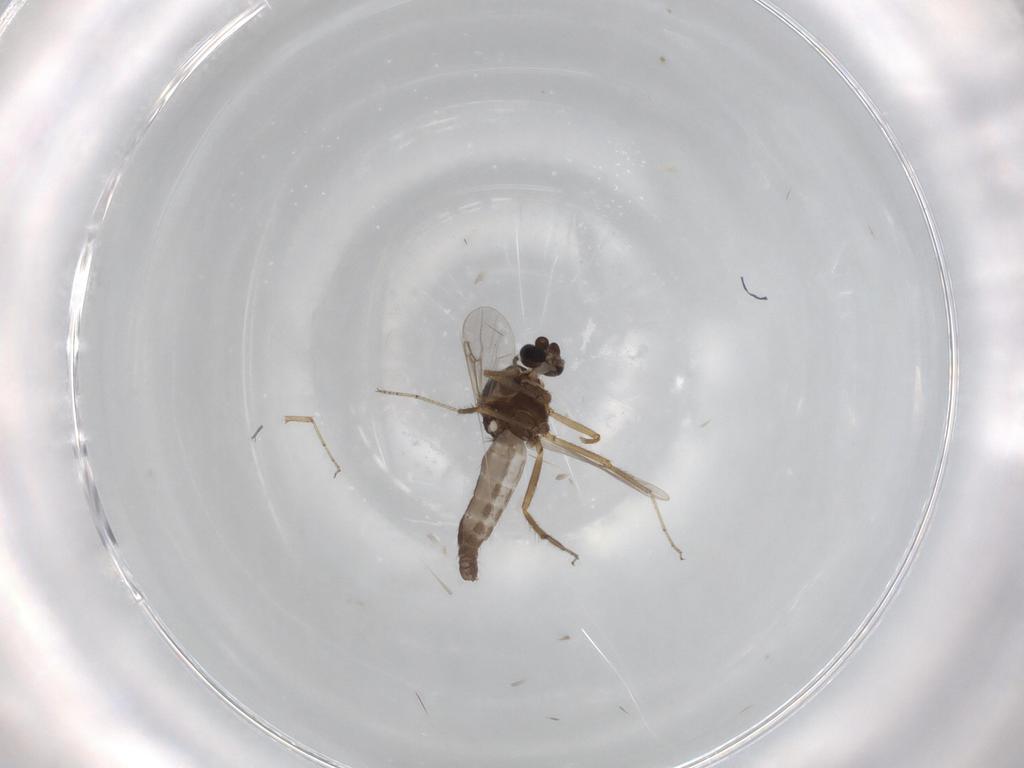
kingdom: Animalia
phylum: Arthropoda
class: Insecta
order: Diptera
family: Ceratopogonidae
